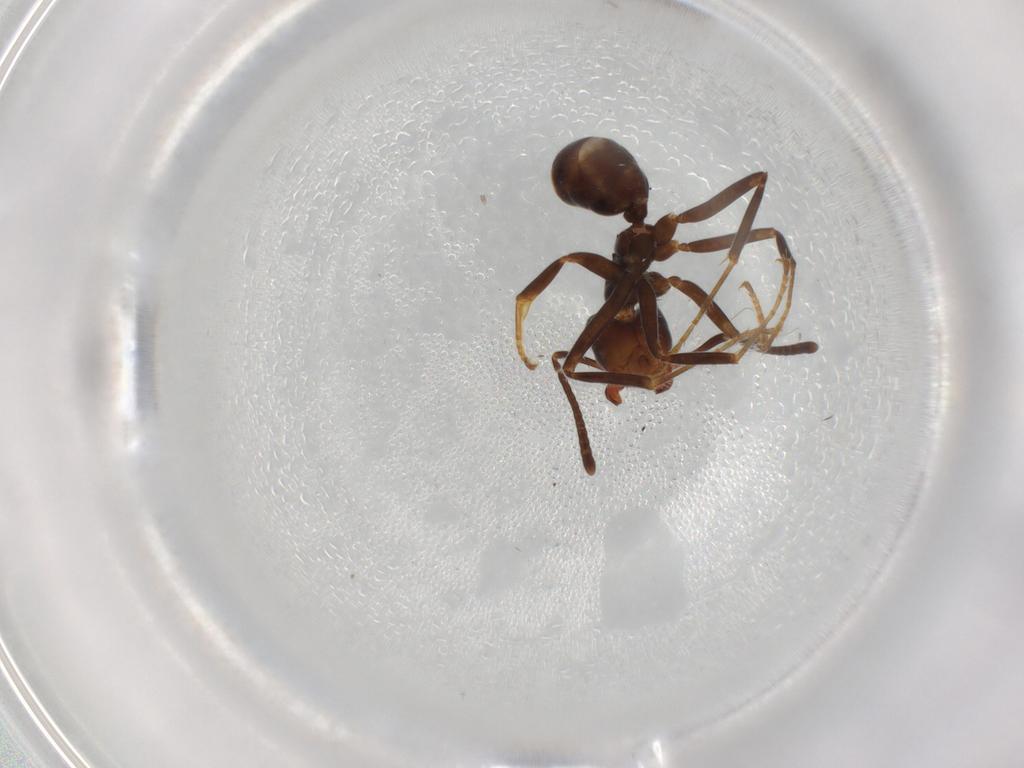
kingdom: Animalia
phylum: Arthropoda
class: Insecta
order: Hymenoptera
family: Formicidae
